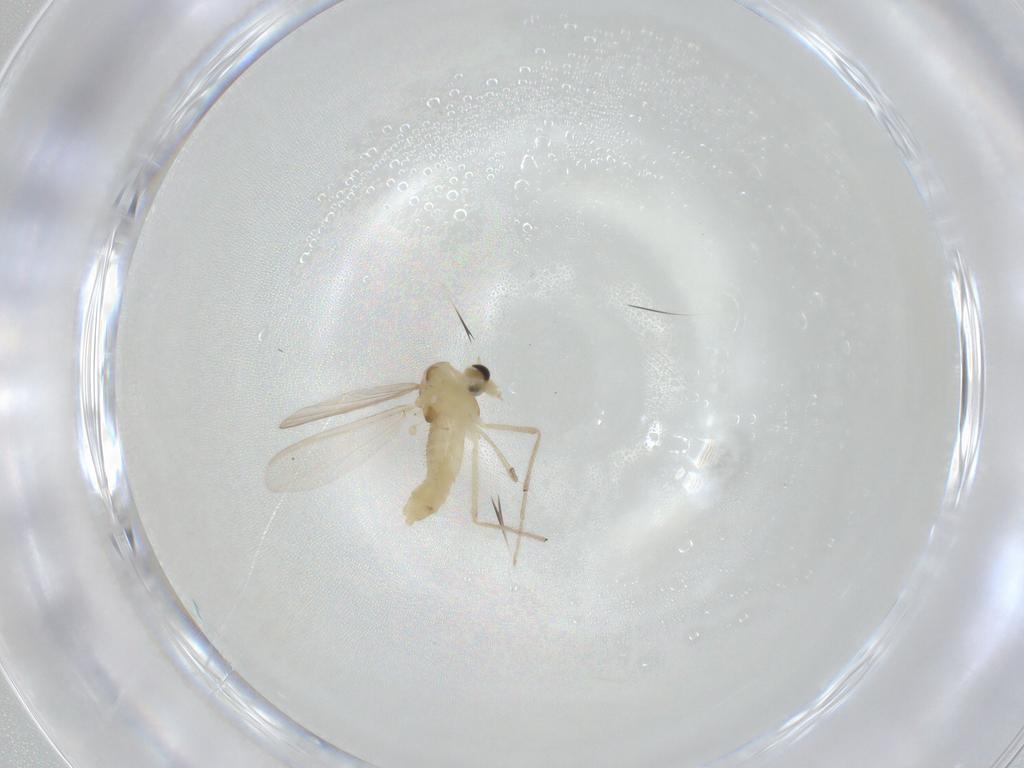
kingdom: Animalia
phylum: Arthropoda
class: Insecta
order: Diptera
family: Chironomidae
